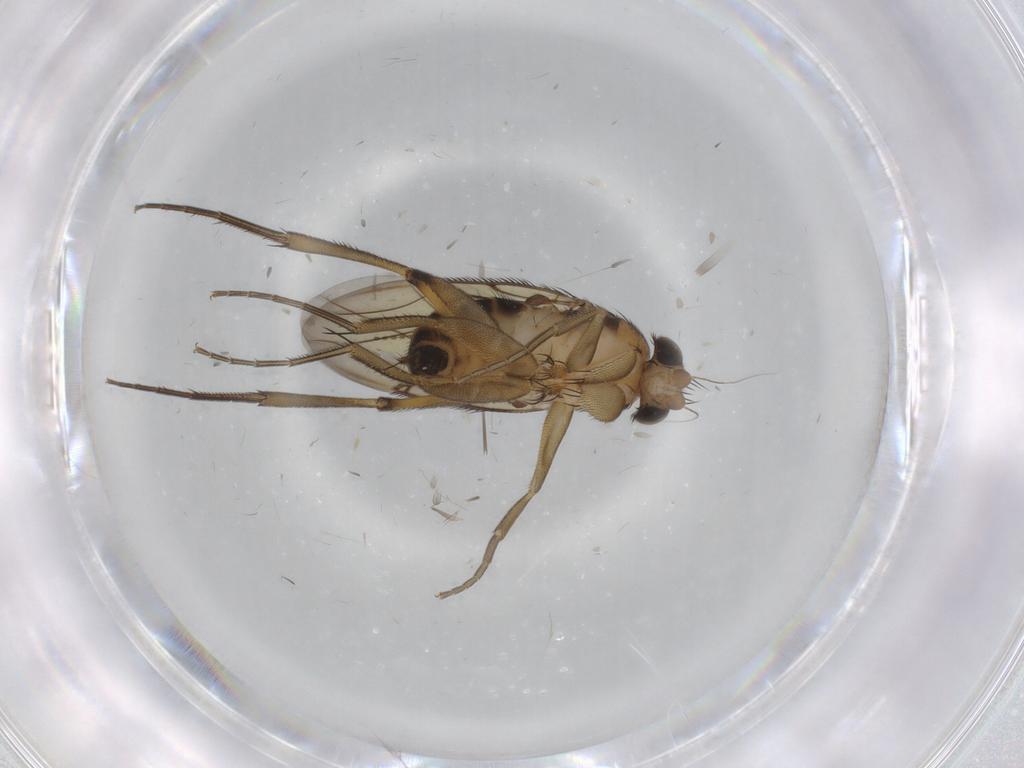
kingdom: Animalia
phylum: Arthropoda
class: Insecta
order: Diptera
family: Phoridae
